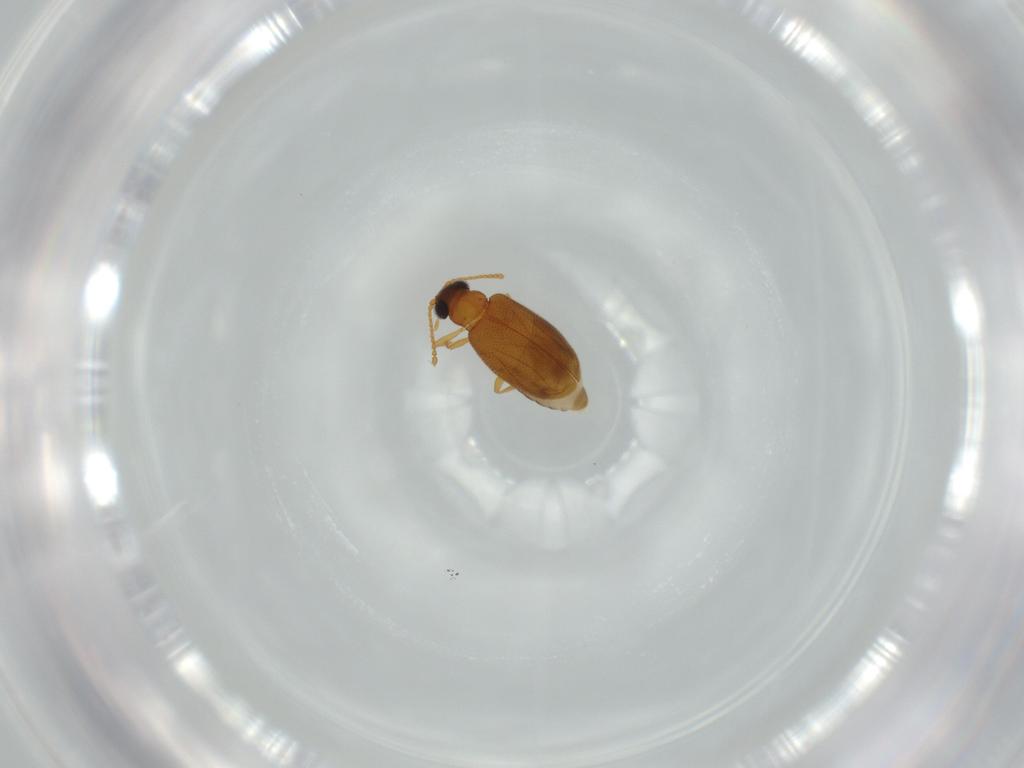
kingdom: Animalia
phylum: Arthropoda
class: Insecta
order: Coleoptera
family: Aderidae
